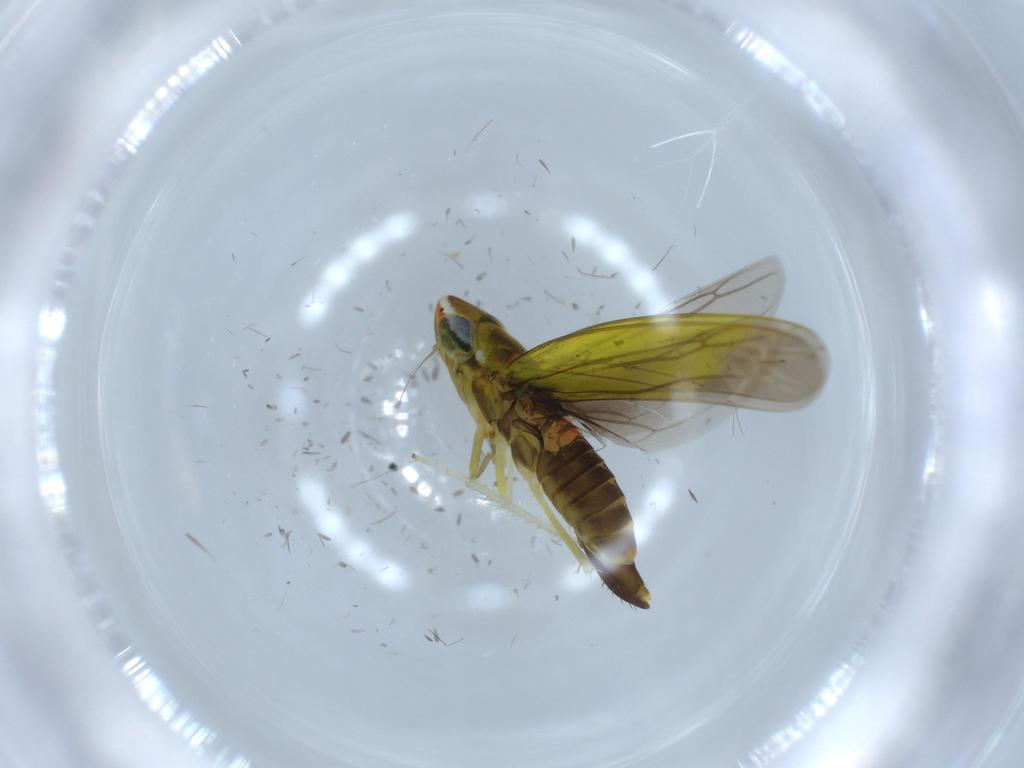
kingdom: Animalia
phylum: Arthropoda
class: Insecta
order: Hemiptera
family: Cicadellidae
